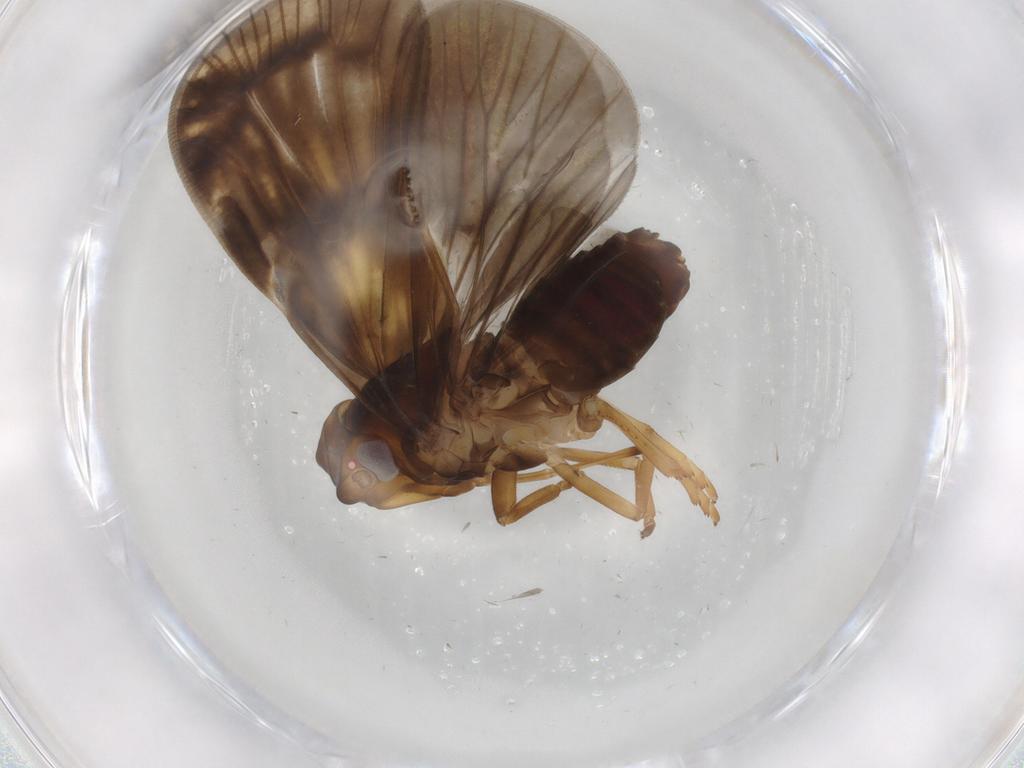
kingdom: Animalia
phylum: Arthropoda
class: Insecta
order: Hemiptera
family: Cixiidae
